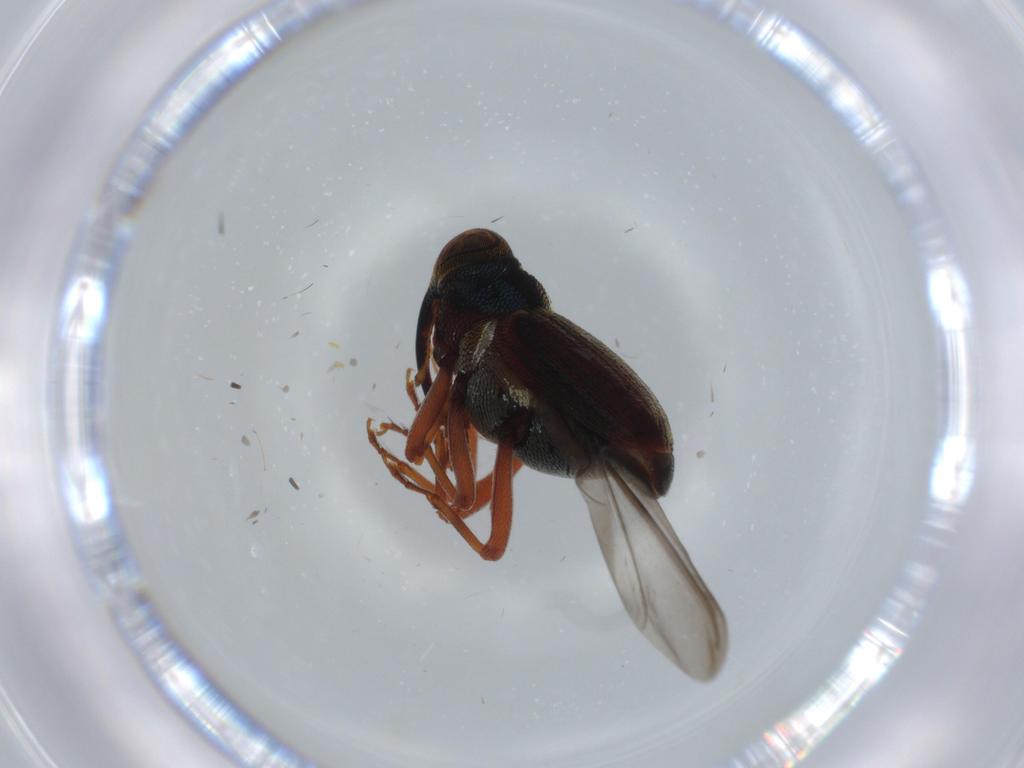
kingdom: Animalia
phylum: Arthropoda
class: Insecta
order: Coleoptera
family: Curculionidae
